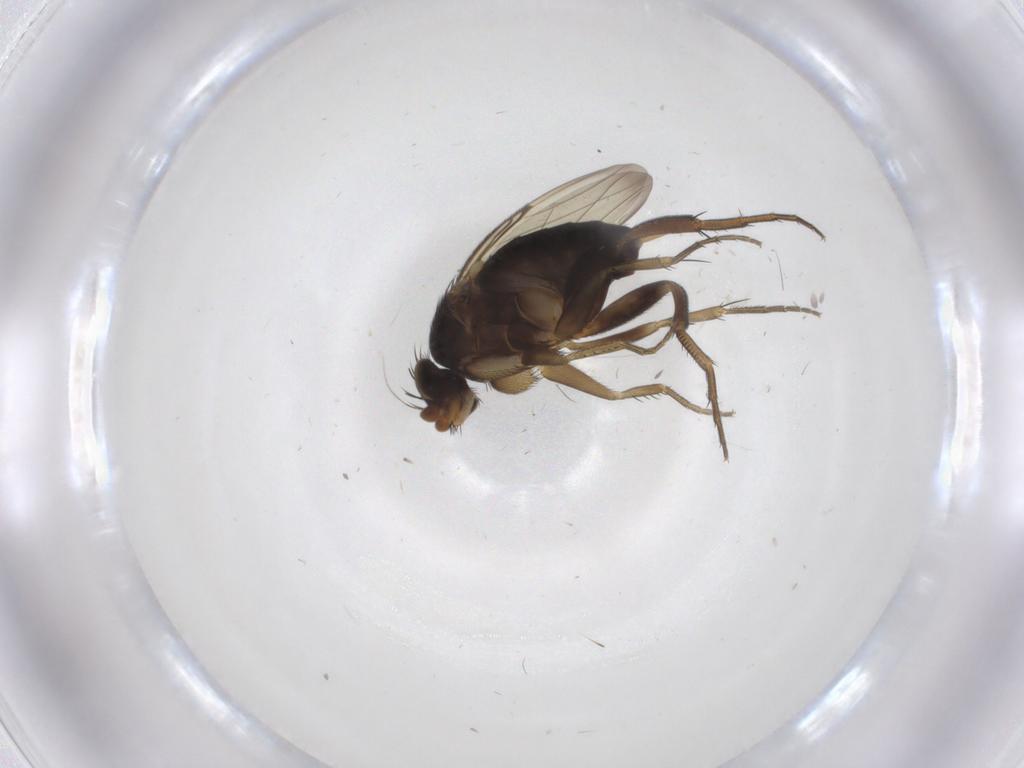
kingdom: Animalia
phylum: Arthropoda
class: Insecta
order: Diptera
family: Phoridae
